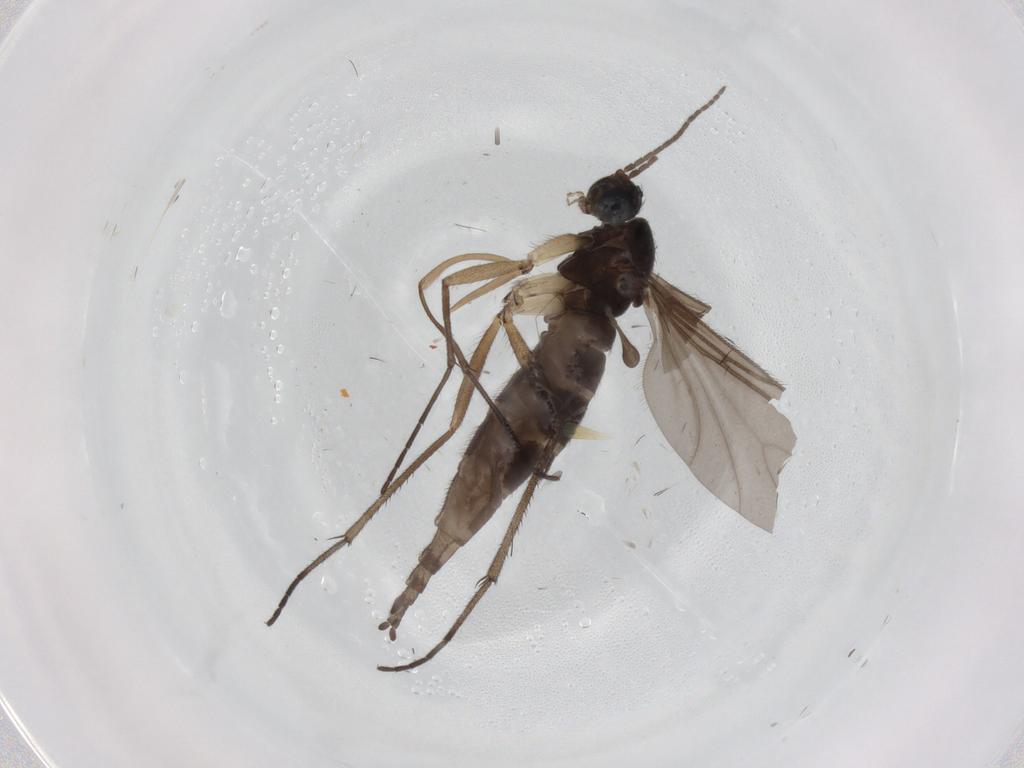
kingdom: Animalia
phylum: Arthropoda
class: Insecta
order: Diptera
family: Sciaridae
